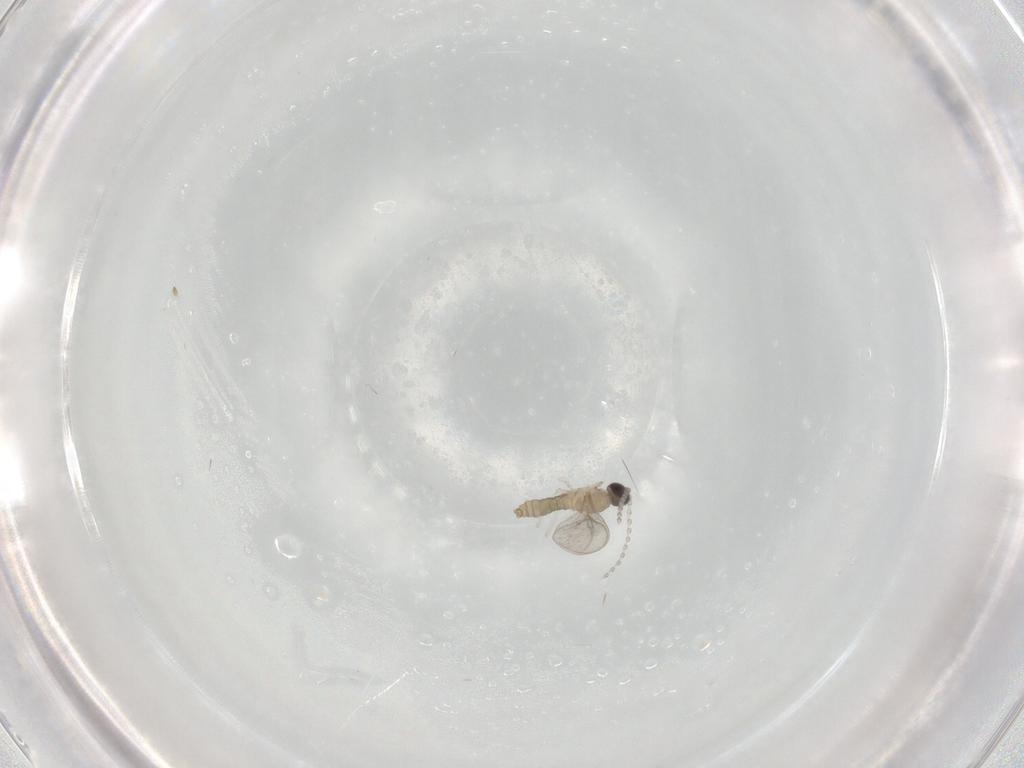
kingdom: Animalia
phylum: Arthropoda
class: Insecta
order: Diptera
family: Cecidomyiidae
